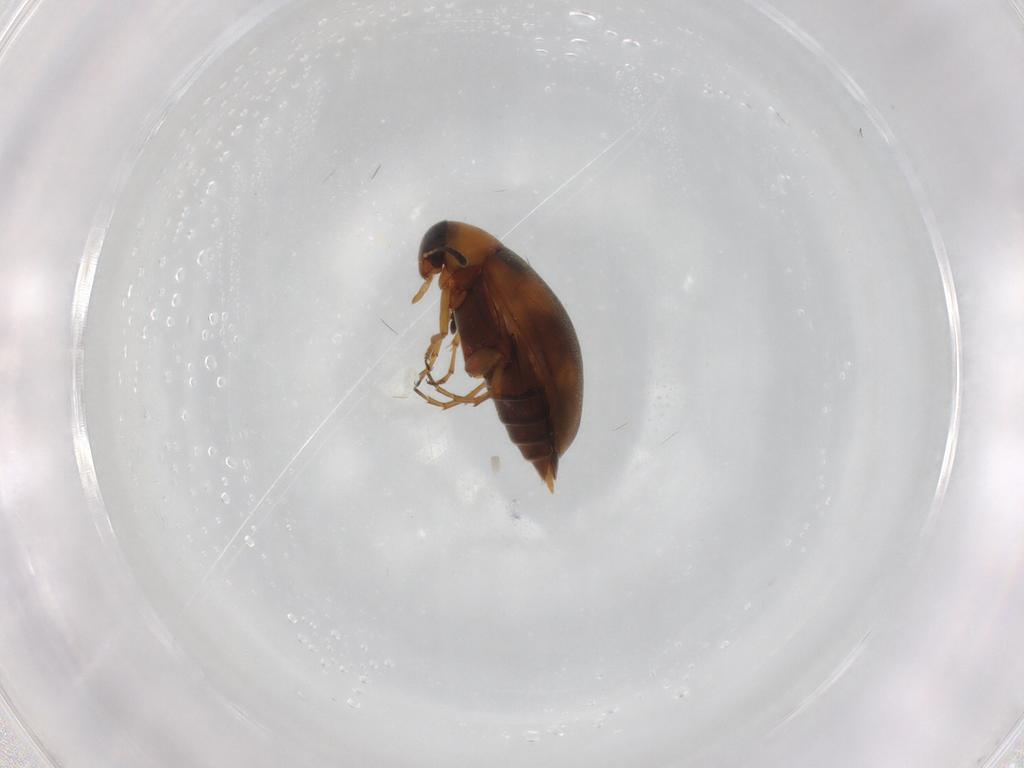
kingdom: Animalia
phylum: Arthropoda
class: Insecta
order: Coleoptera
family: Scraptiidae
